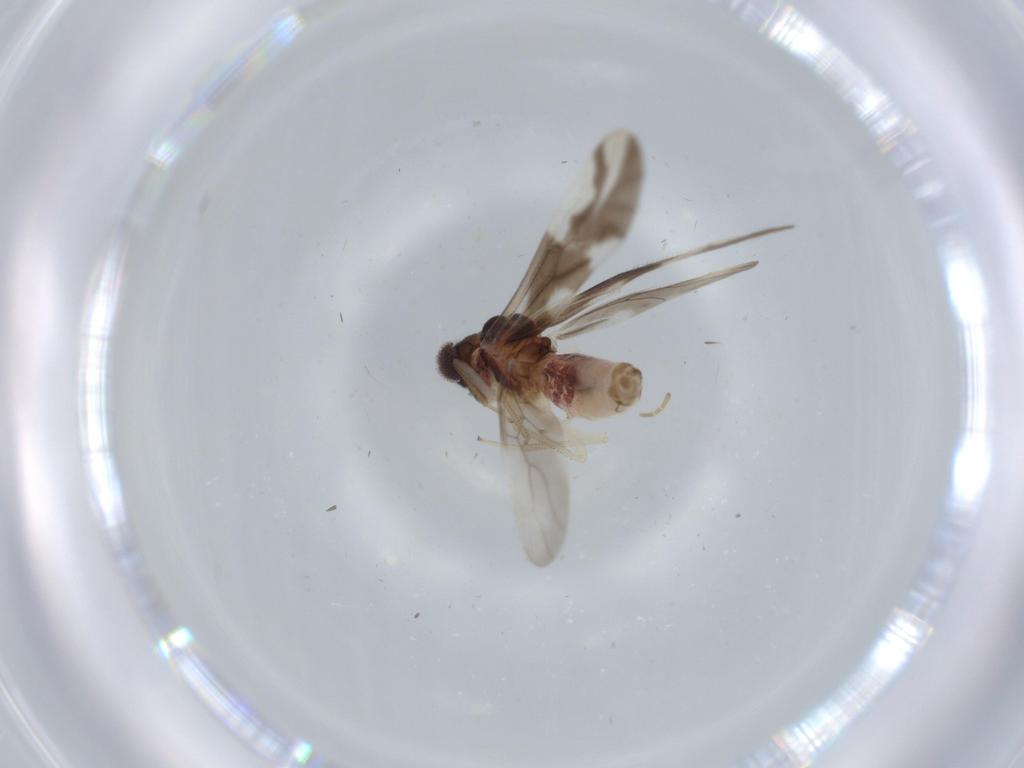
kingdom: Animalia
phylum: Arthropoda
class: Insecta
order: Psocodea
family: Caeciliusidae
